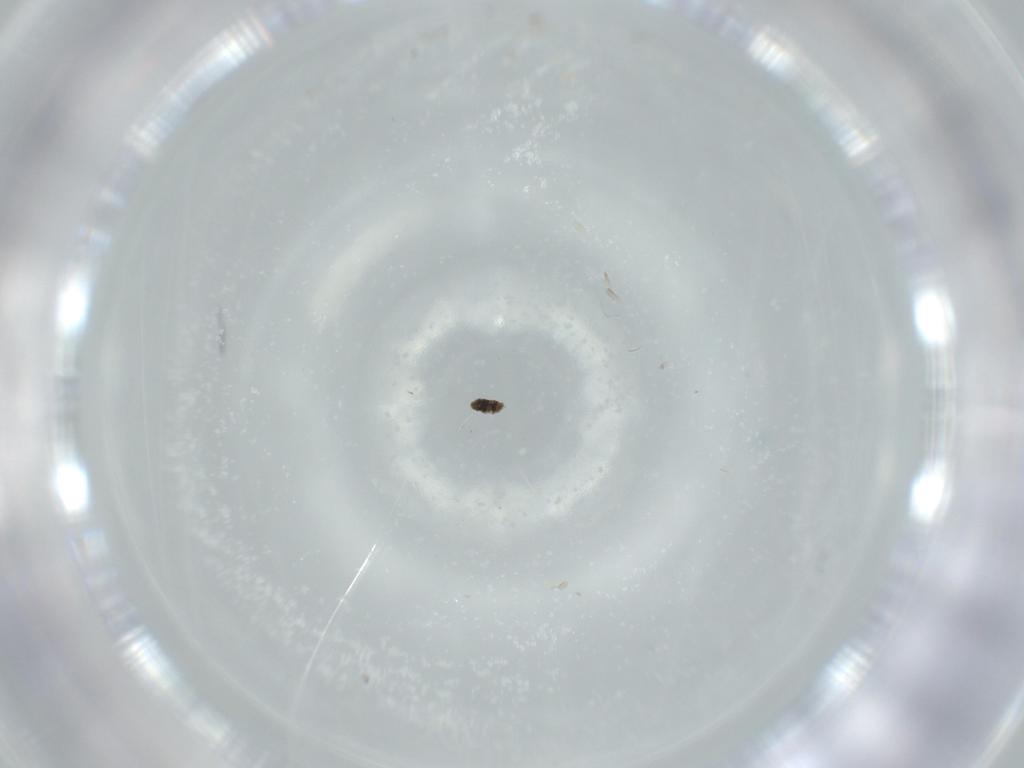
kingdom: Animalia
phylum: Arthropoda
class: Insecta
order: Diptera
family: Phoridae
